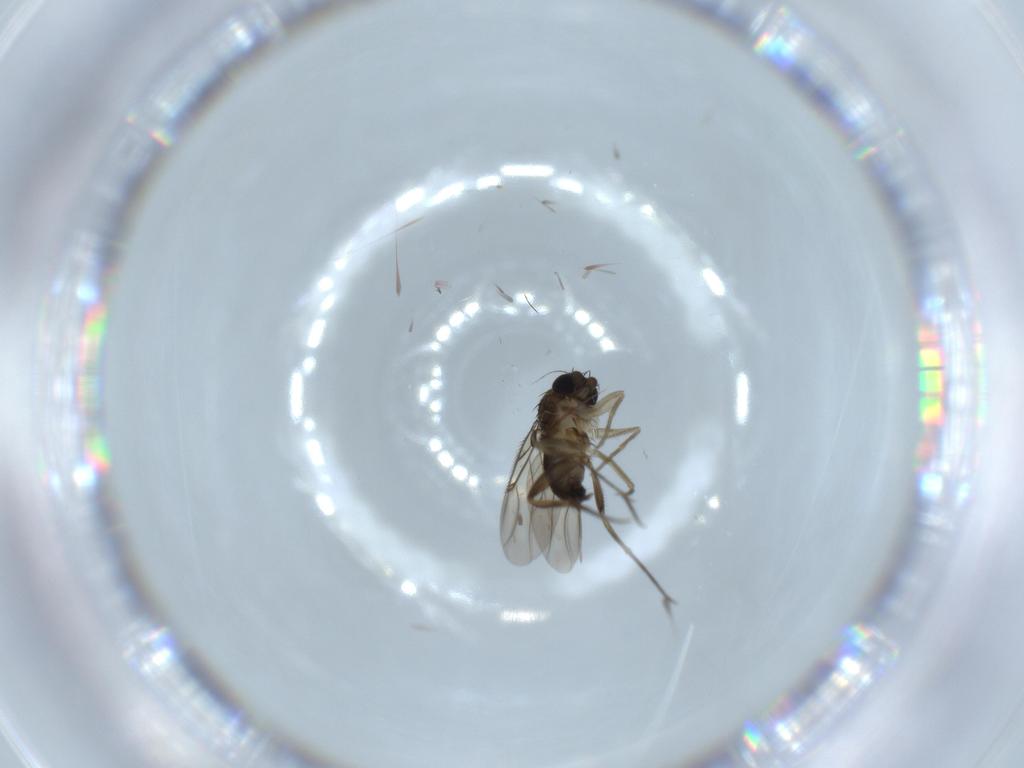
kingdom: Animalia
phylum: Arthropoda
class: Insecta
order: Diptera
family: Phoridae
